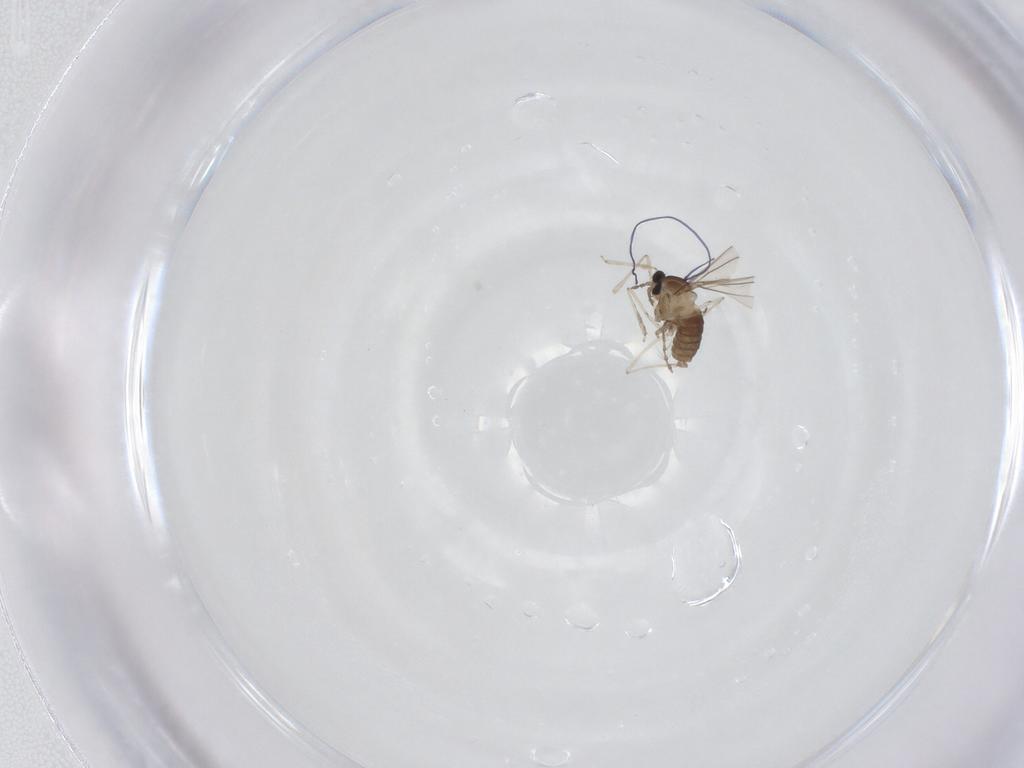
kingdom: Animalia
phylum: Arthropoda
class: Insecta
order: Diptera
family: Cecidomyiidae
